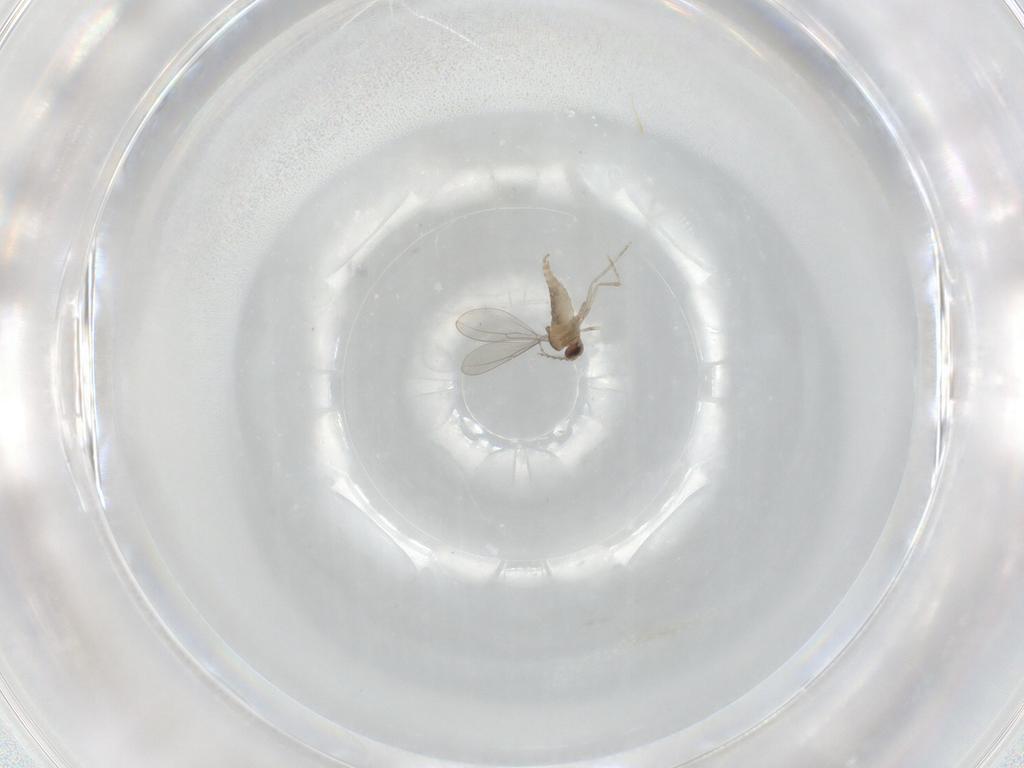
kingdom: Animalia
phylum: Arthropoda
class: Insecta
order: Diptera
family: Cecidomyiidae
